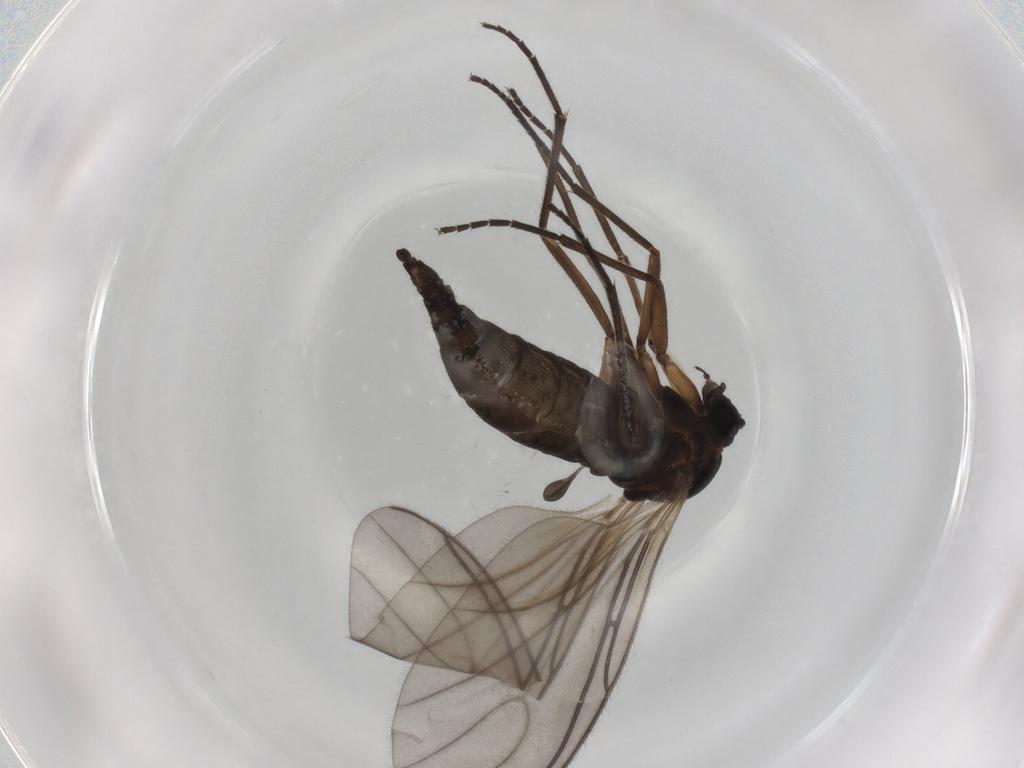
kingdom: Animalia
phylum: Arthropoda
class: Insecta
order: Diptera
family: Sciaridae
